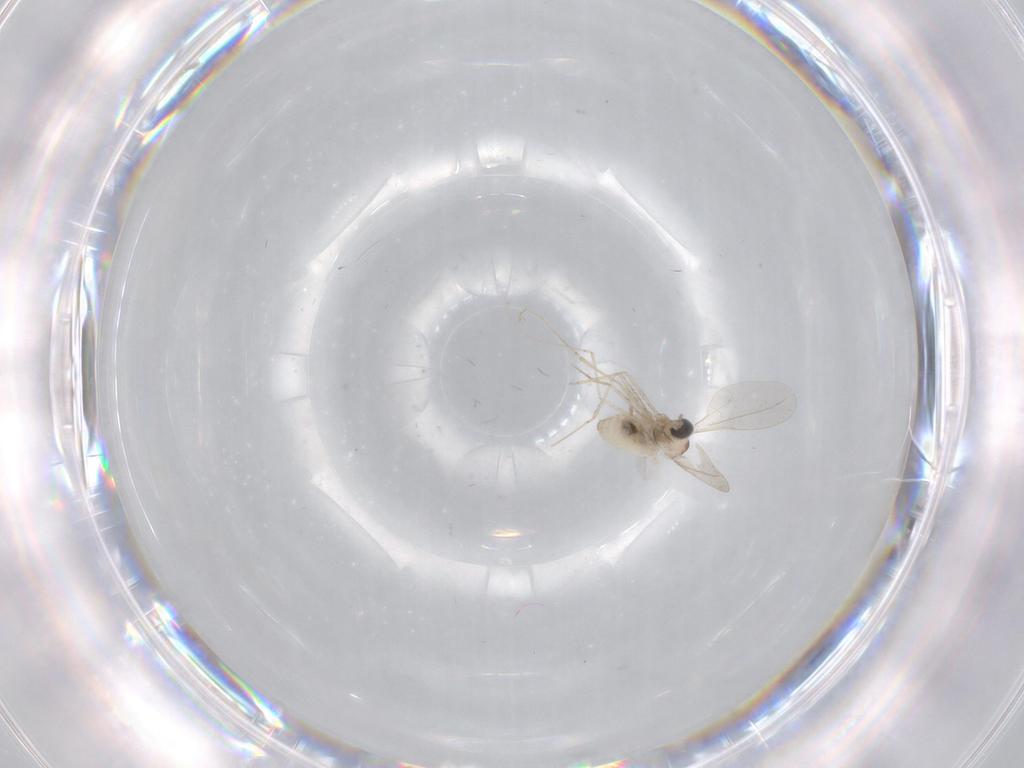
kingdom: Animalia
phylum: Arthropoda
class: Insecta
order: Diptera
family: Cecidomyiidae
